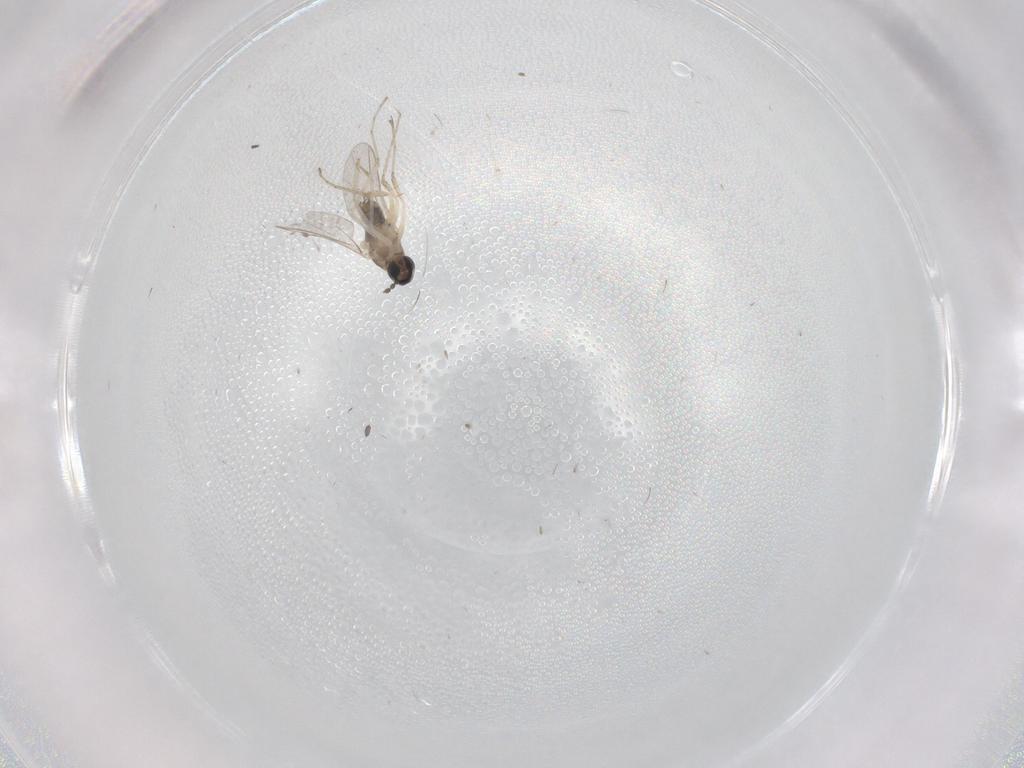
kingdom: Animalia
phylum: Arthropoda
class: Insecta
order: Diptera
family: Cecidomyiidae
